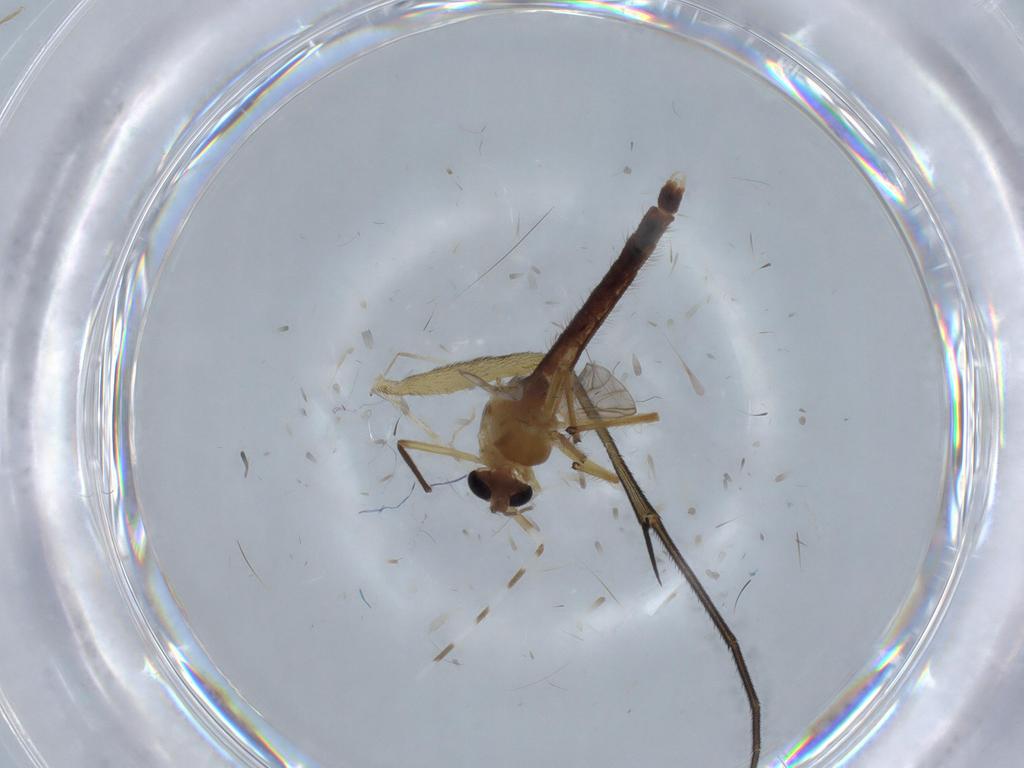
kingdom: Animalia
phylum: Arthropoda
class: Insecta
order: Diptera
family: Chironomidae
